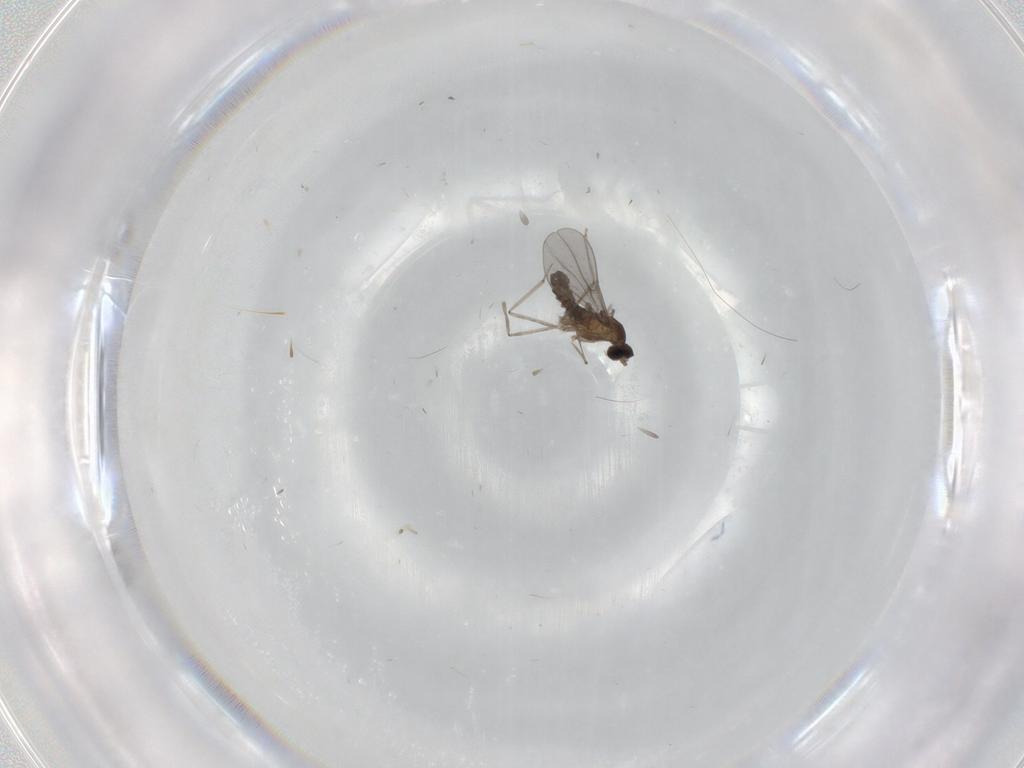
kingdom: Animalia
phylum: Arthropoda
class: Insecta
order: Diptera
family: Cecidomyiidae
